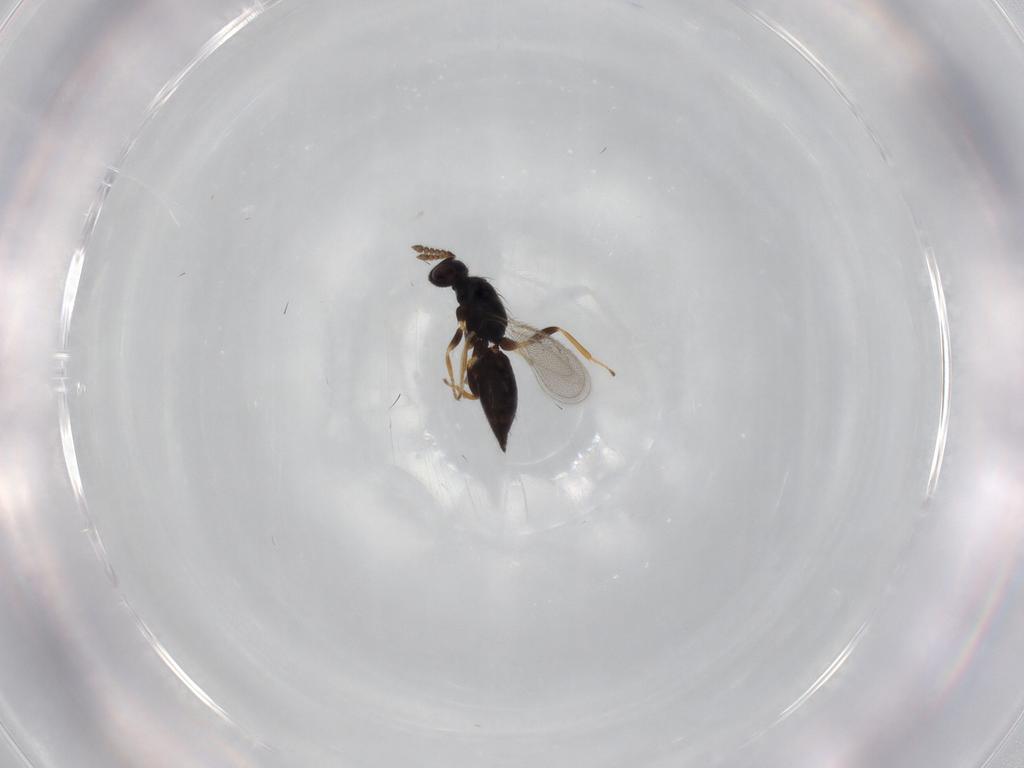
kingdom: Animalia
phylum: Arthropoda
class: Insecta
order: Hymenoptera
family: Eulophidae
